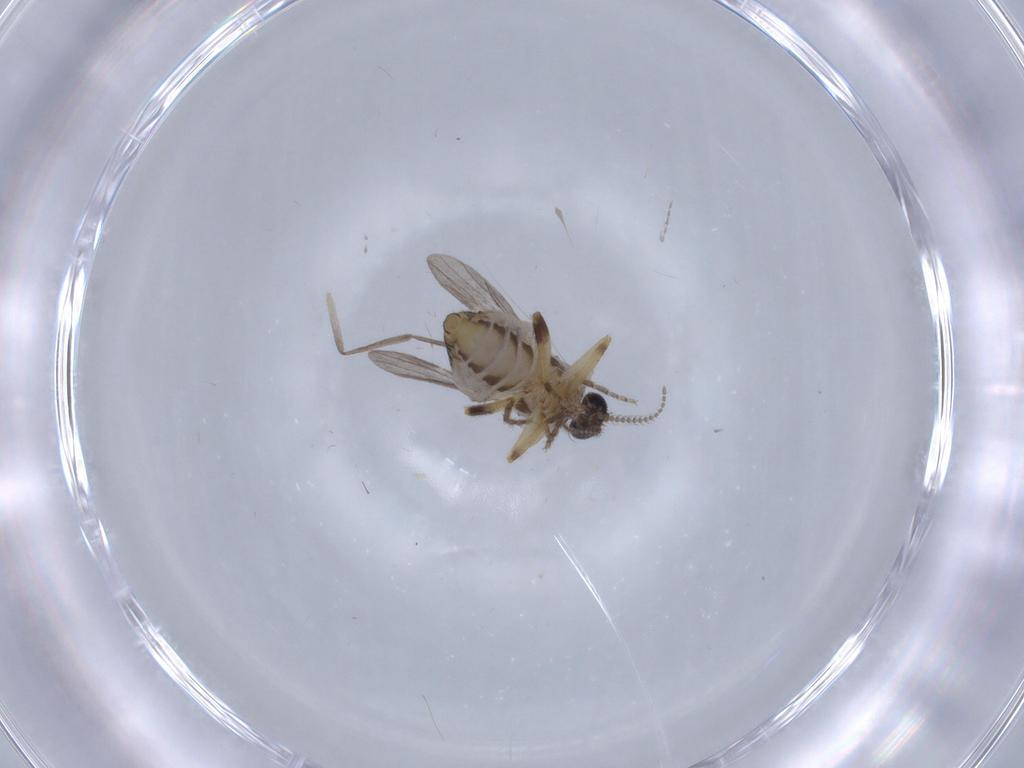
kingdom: Animalia
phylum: Arthropoda
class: Insecta
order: Diptera
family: Ceratopogonidae
